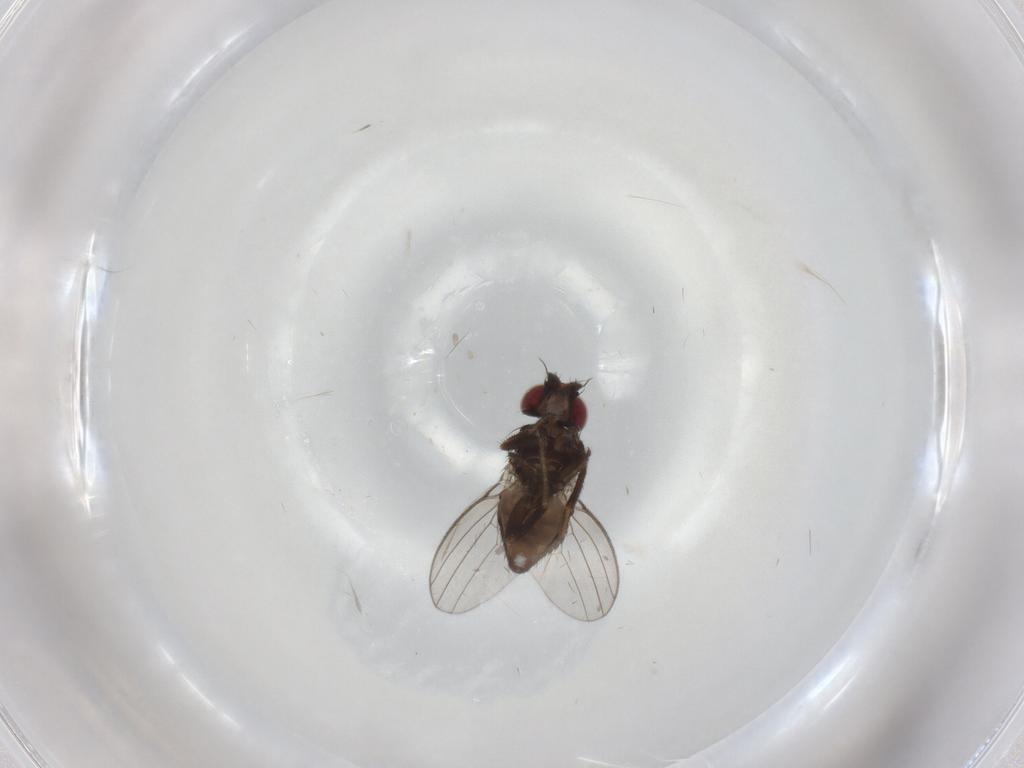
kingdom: Animalia
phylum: Arthropoda
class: Insecta
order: Diptera
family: Milichiidae
